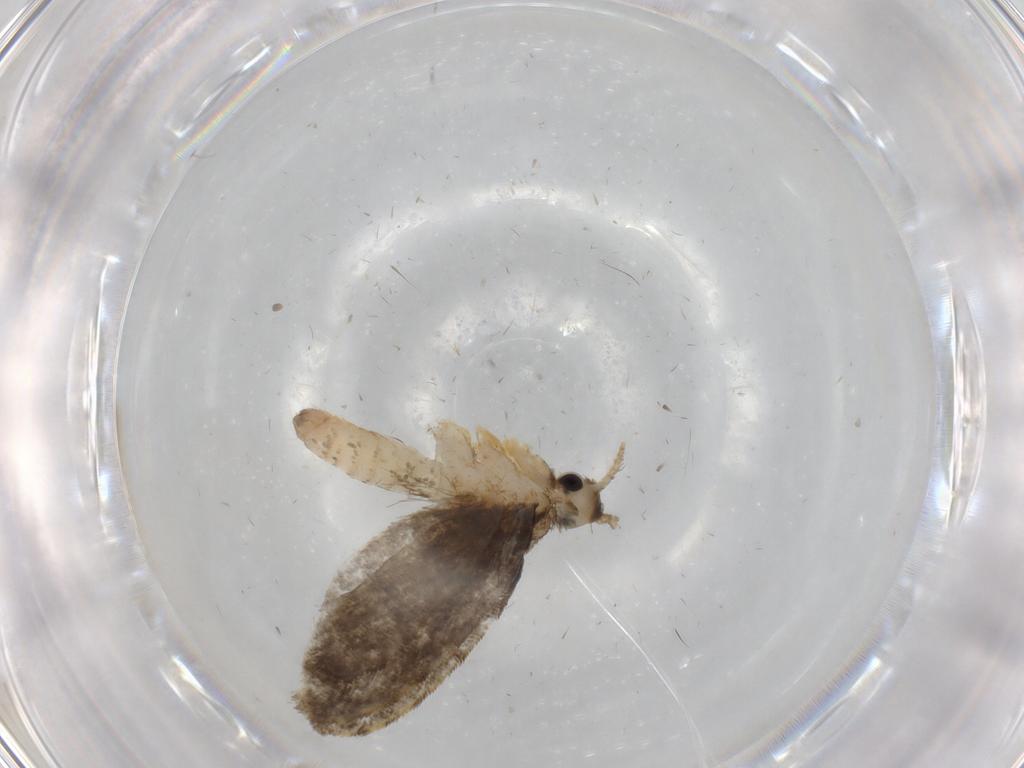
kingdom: Animalia
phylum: Arthropoda
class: Insecta
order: Lepidoptera
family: Psychidae
